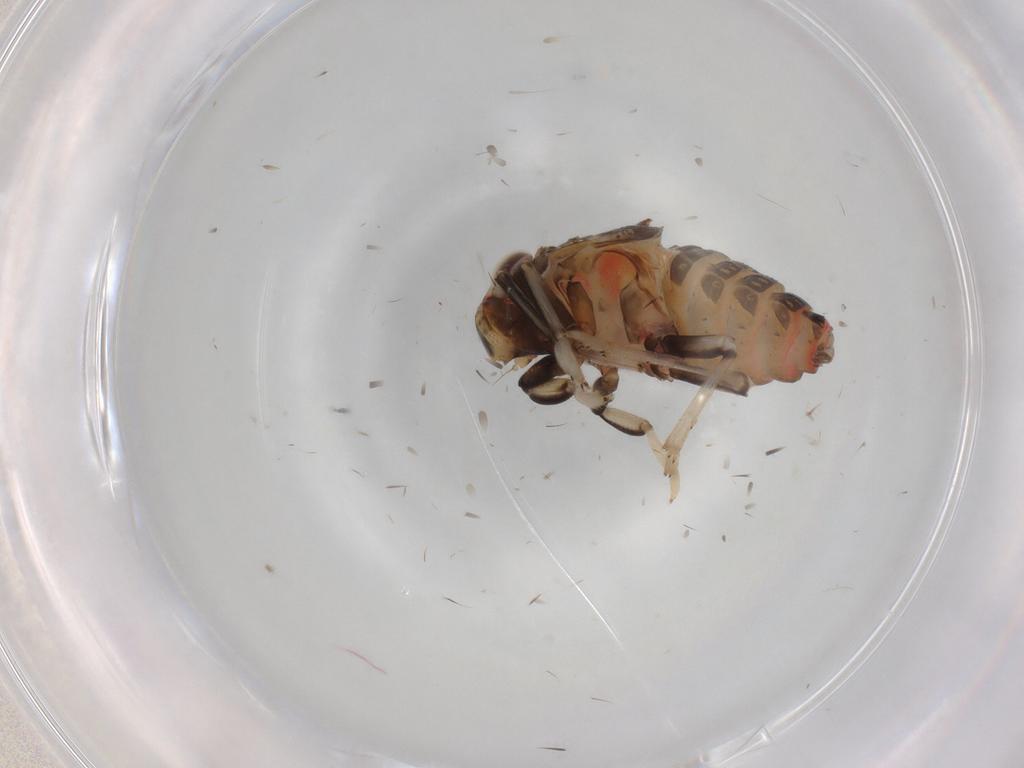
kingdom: Animalia
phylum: Arthropoda
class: Insecta
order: Hemiptera
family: Issidae
